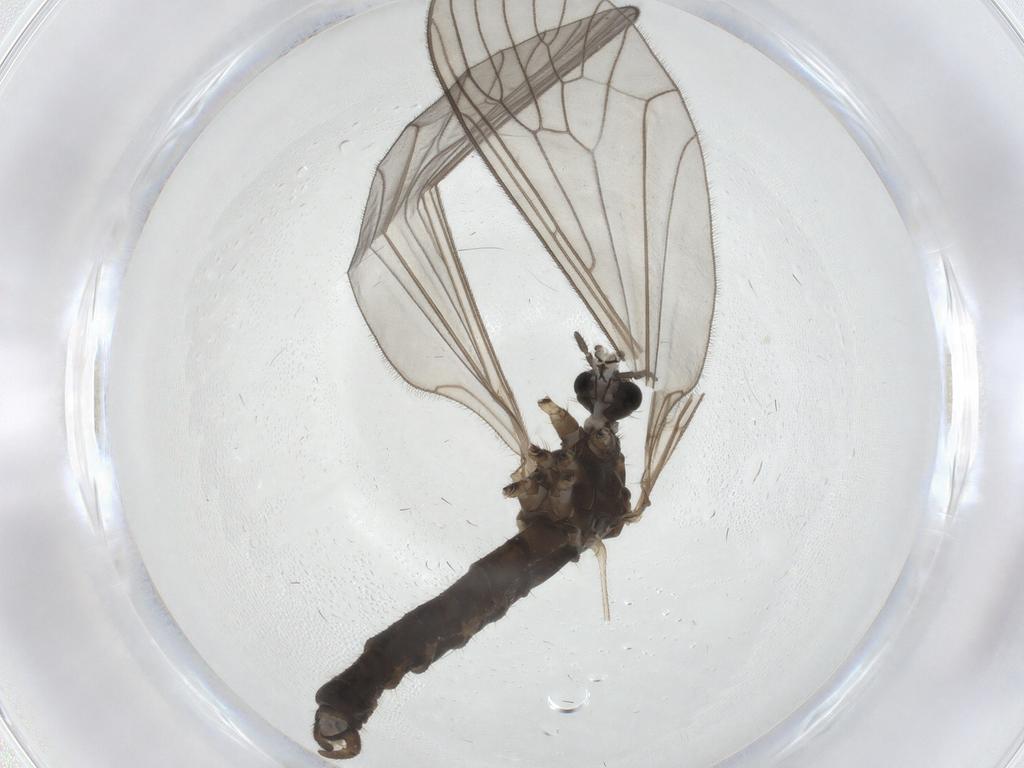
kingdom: Animalia
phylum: Arthropoda
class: Insecta
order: Diptera
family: Trichoceridae
